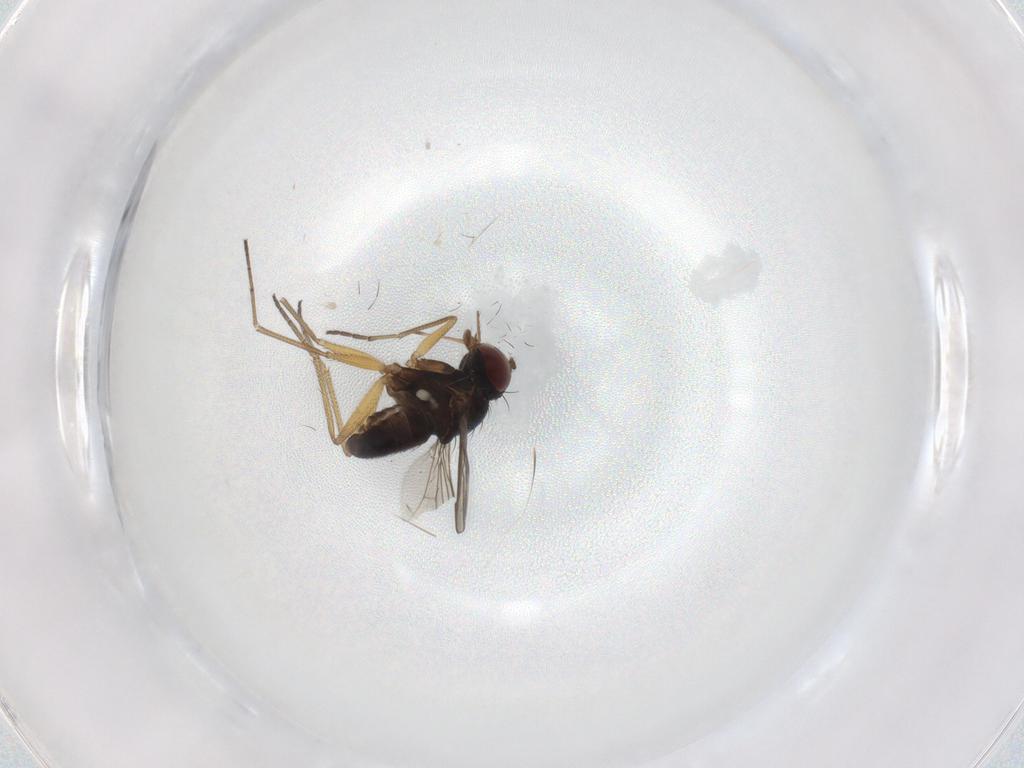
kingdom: Animalia
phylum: Arthropoda
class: Insecta
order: Diptera
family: Dolichopodidae
